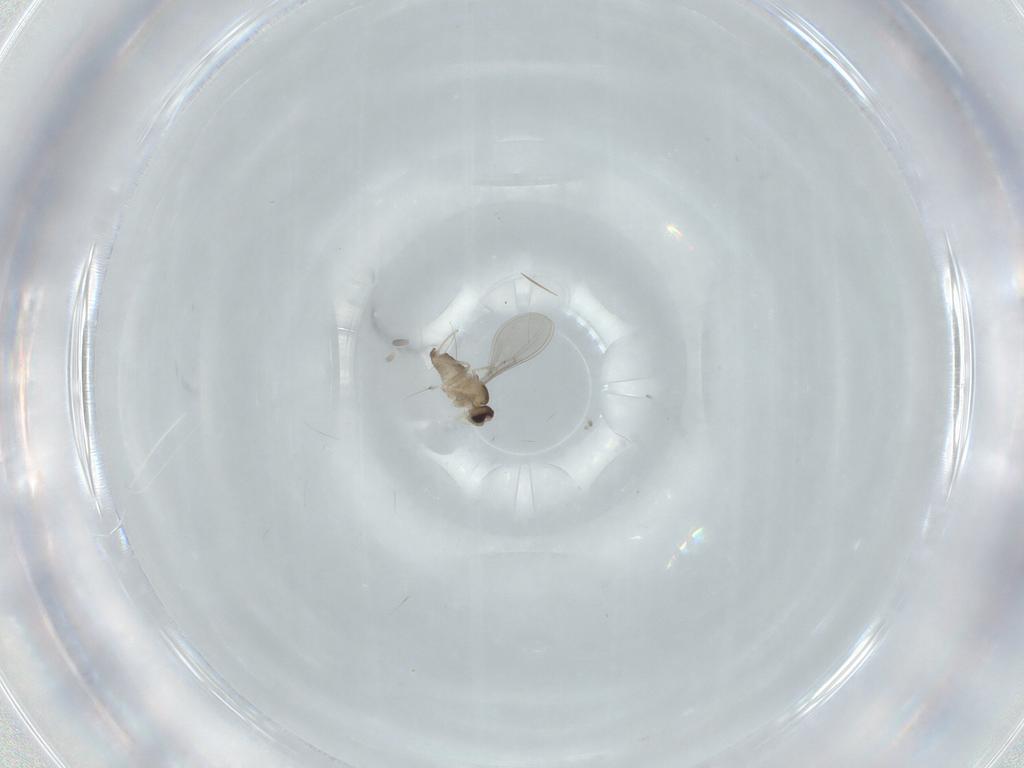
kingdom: Animalia
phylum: Arthropoda
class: Insecta
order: Diptera
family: Cecidomyiidae
